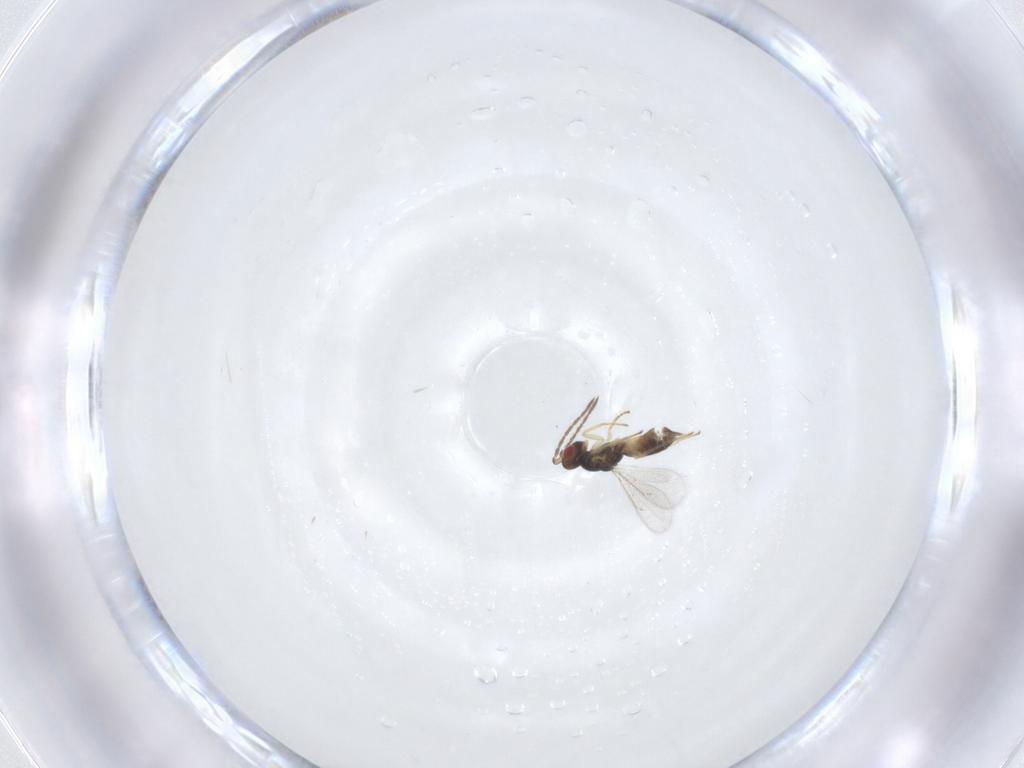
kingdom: Animalia
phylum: Arthropoda
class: Insecta
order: Hymenoptera
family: Eulophidae
